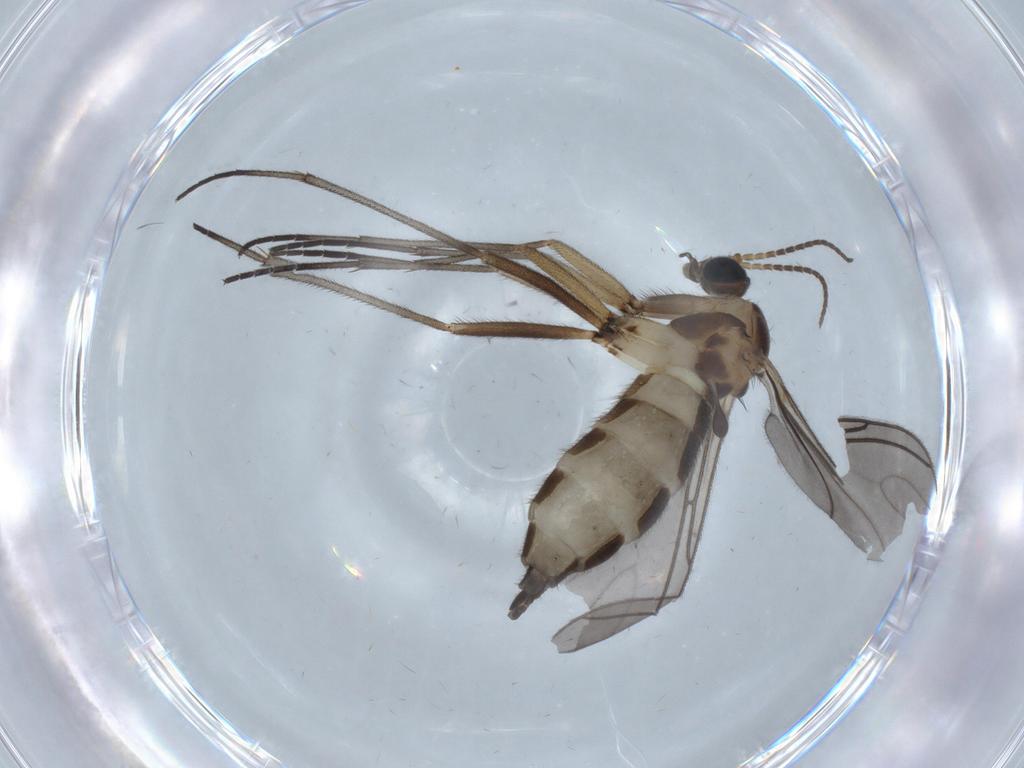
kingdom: Animalia
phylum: Arthropoda
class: Insecta
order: Diptera
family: Sciaridae
